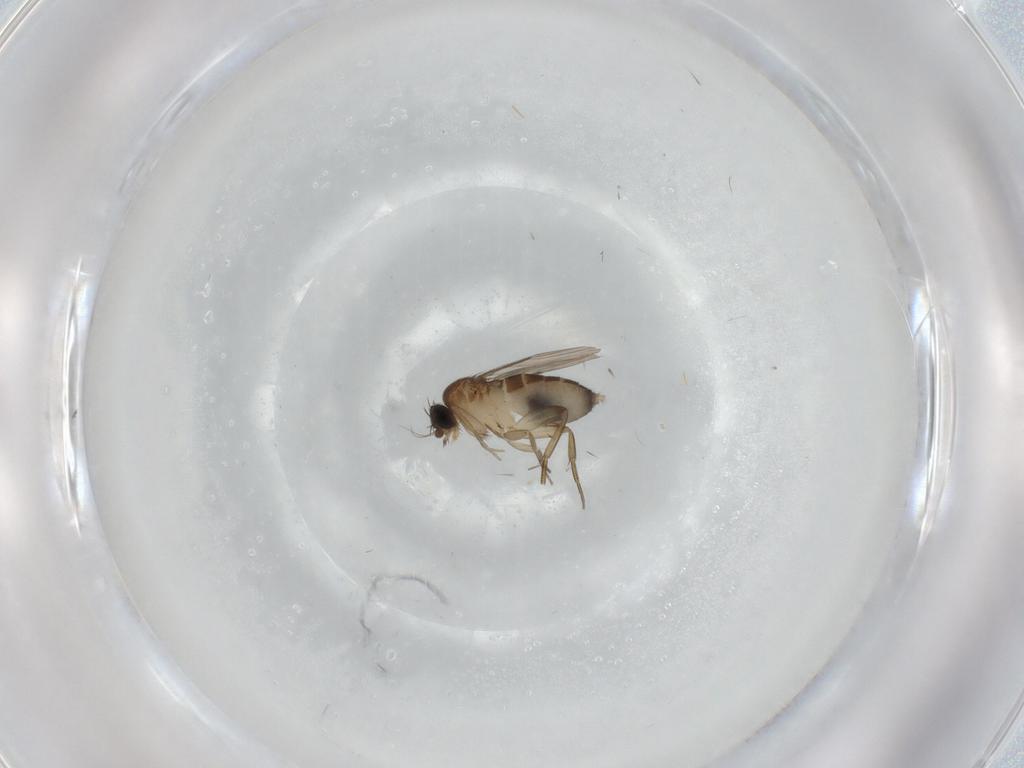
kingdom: Animalia
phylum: Arthropoda
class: Insecta
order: Diptera
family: Phoridae
